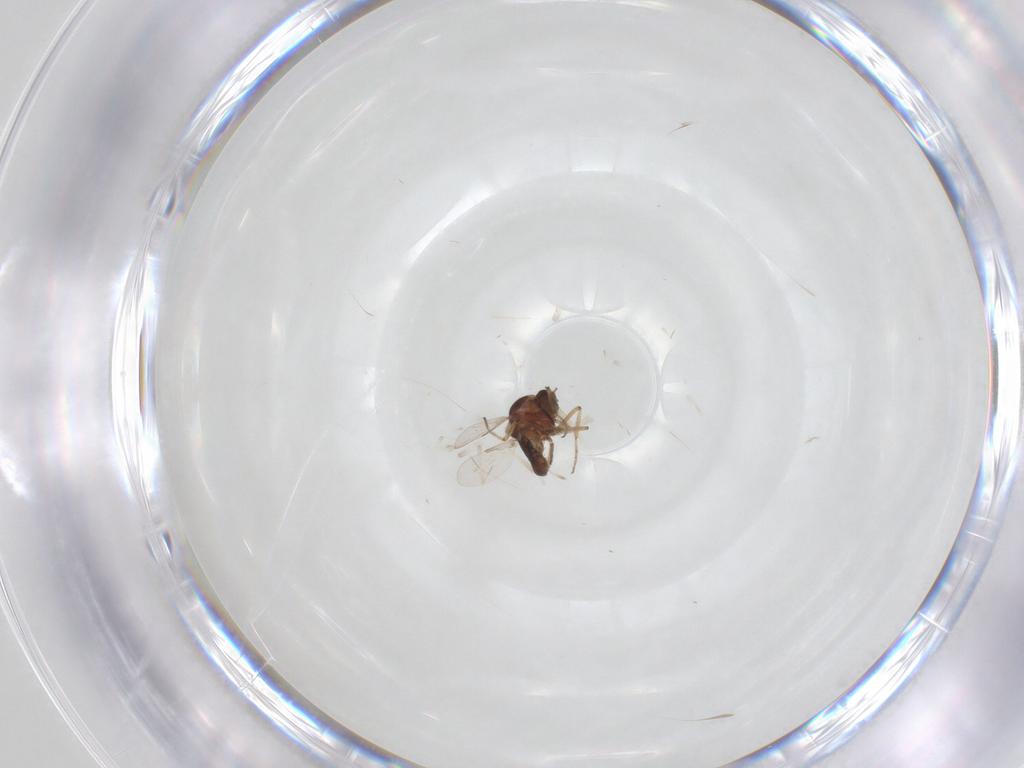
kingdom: Animalia
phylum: Arthropoda
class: Insecta
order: Diptera
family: Ceratopogonidae
